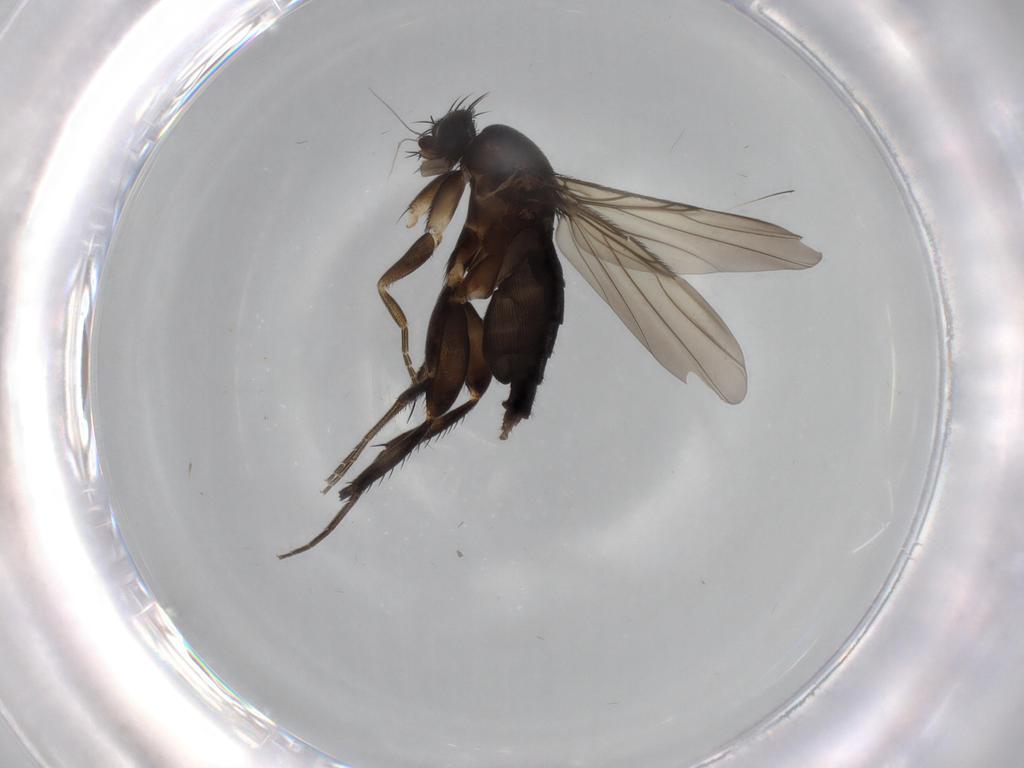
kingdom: Animalia
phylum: Arthropoda
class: Insecta
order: Diptera
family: Phoridae
